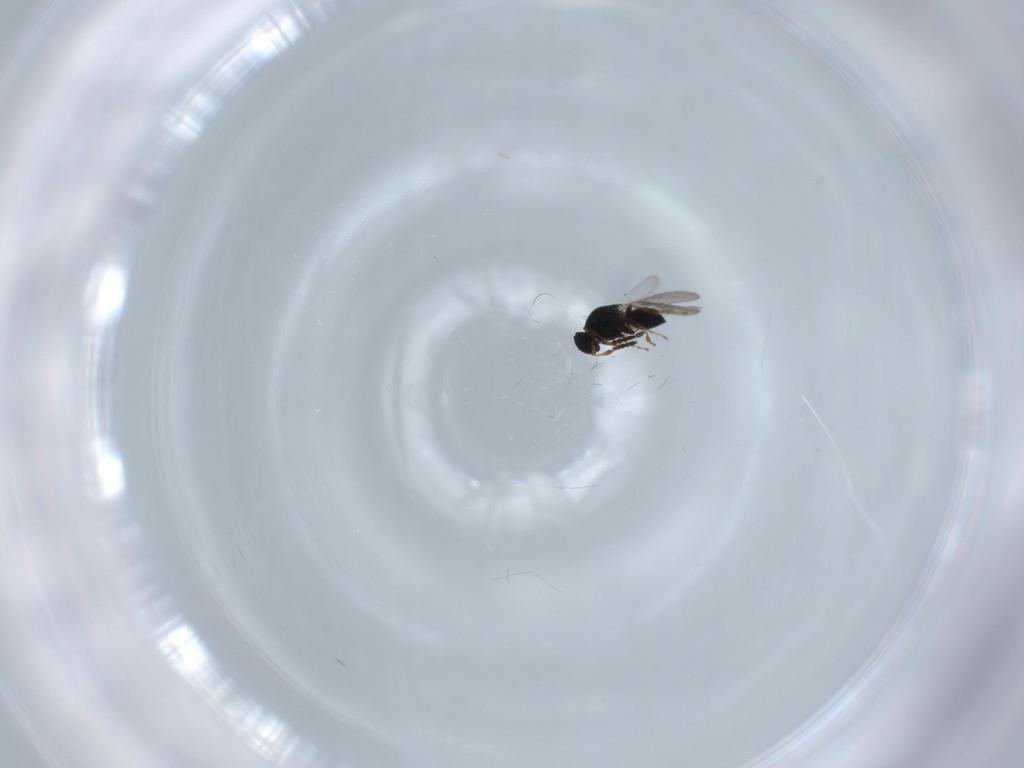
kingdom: Animalia
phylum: Arthropoda
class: Insecta
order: Hymenoptera
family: Platygastridae
